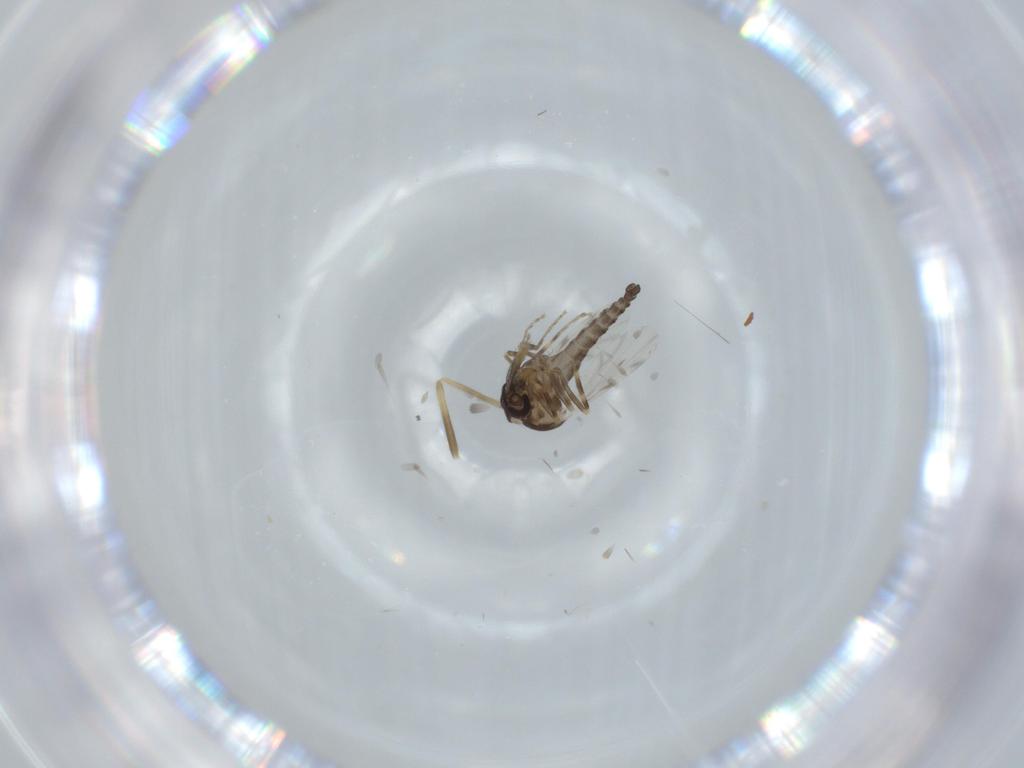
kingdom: Animalia
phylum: Arthropoda
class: Insecta
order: Diptera
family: Ceratopogonidae
